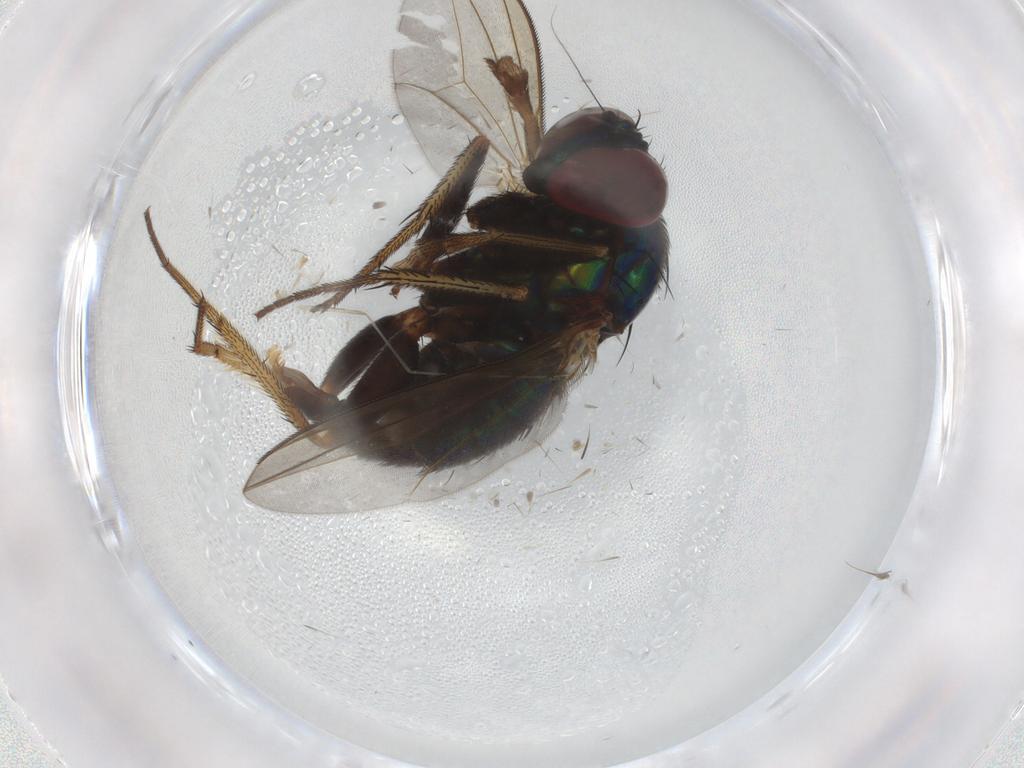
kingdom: Animalia
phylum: Arthropoda
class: Insecta
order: Diptera
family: Dolichopodidae
